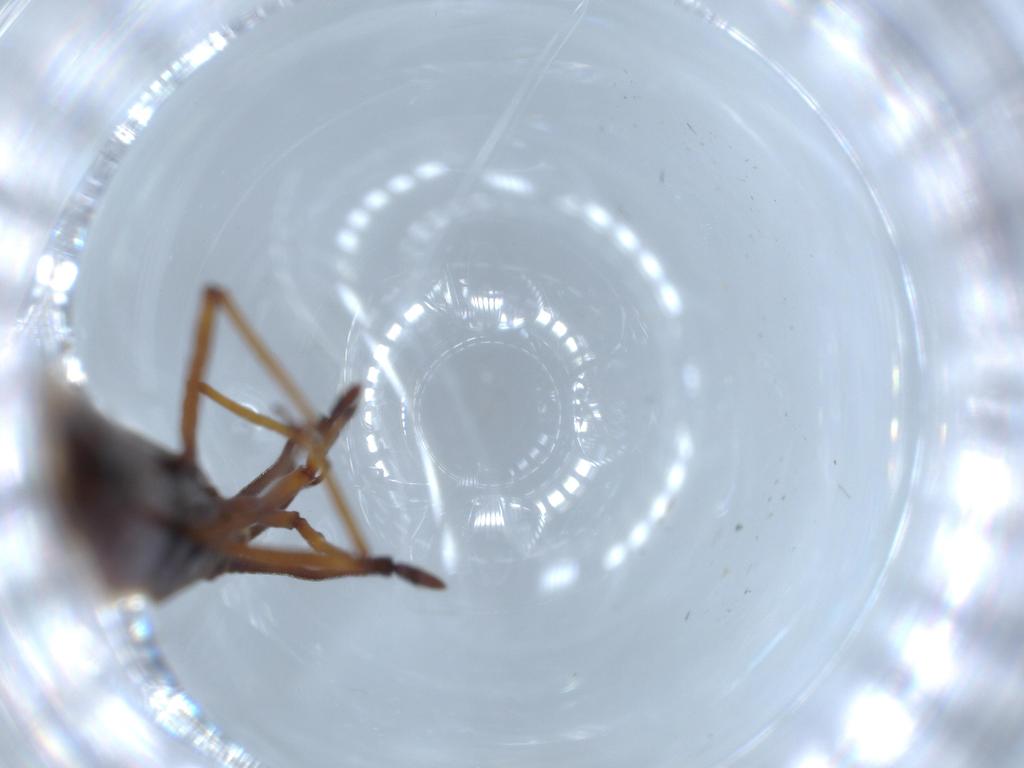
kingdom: Animalia
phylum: Arthropoda
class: Insecta
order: Hemiptera
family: Tingidae
